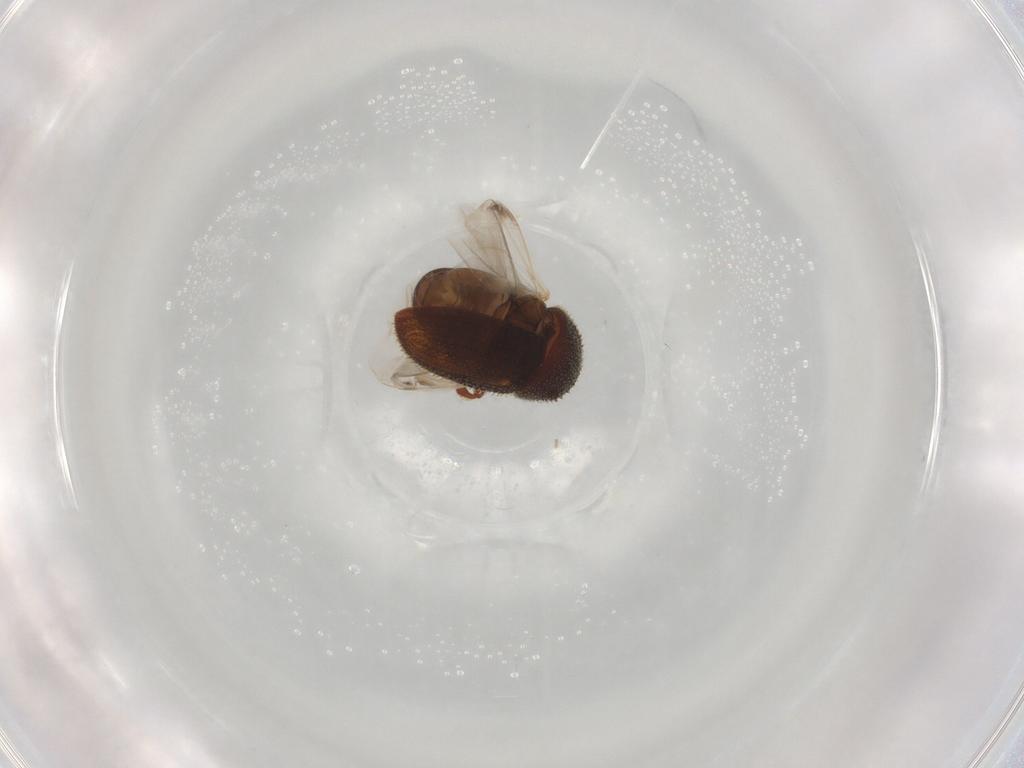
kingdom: Animalia
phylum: Arthropoda
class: Insecta
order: Coleoptera
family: Curculionidae
